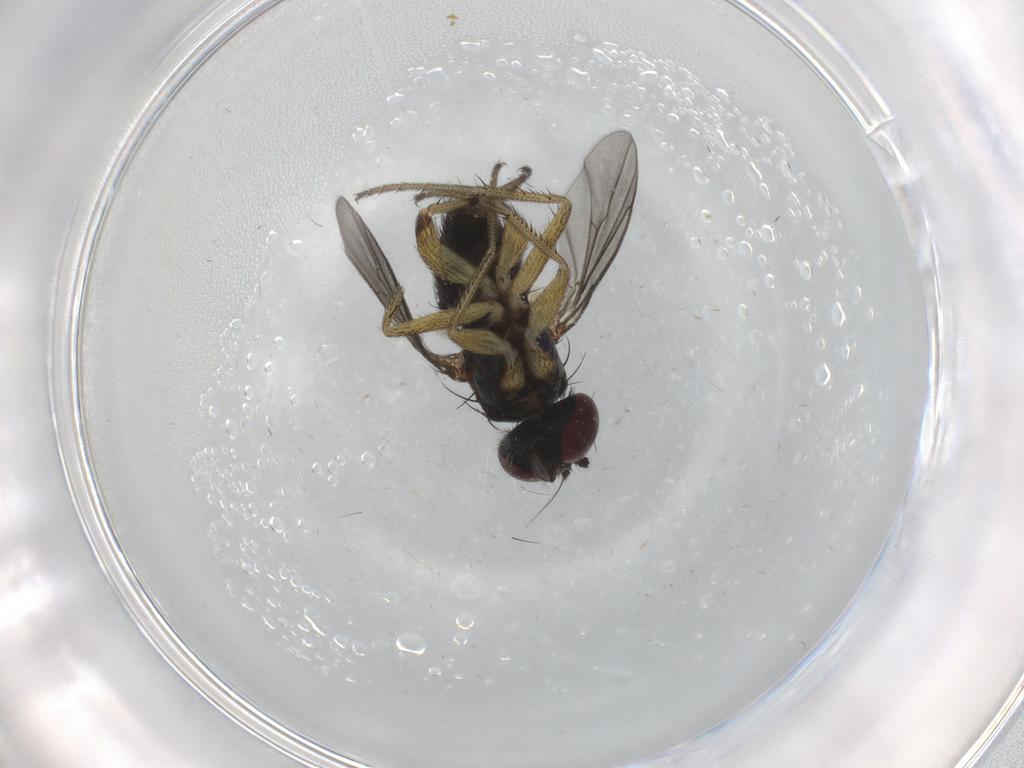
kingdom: Animalia
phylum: Arthropoda
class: Insecta
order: Diptera
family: Dolichopodidae
